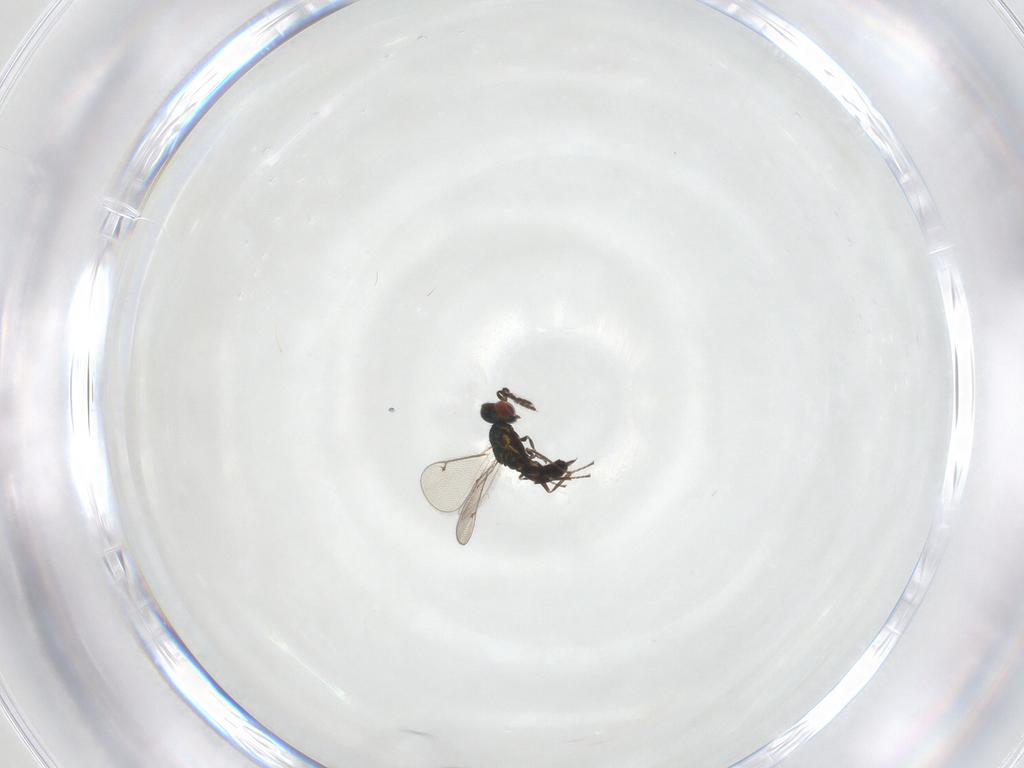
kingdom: Animalia
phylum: Arthropoda
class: Insecta
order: Hymenoptera
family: Eulophidae
